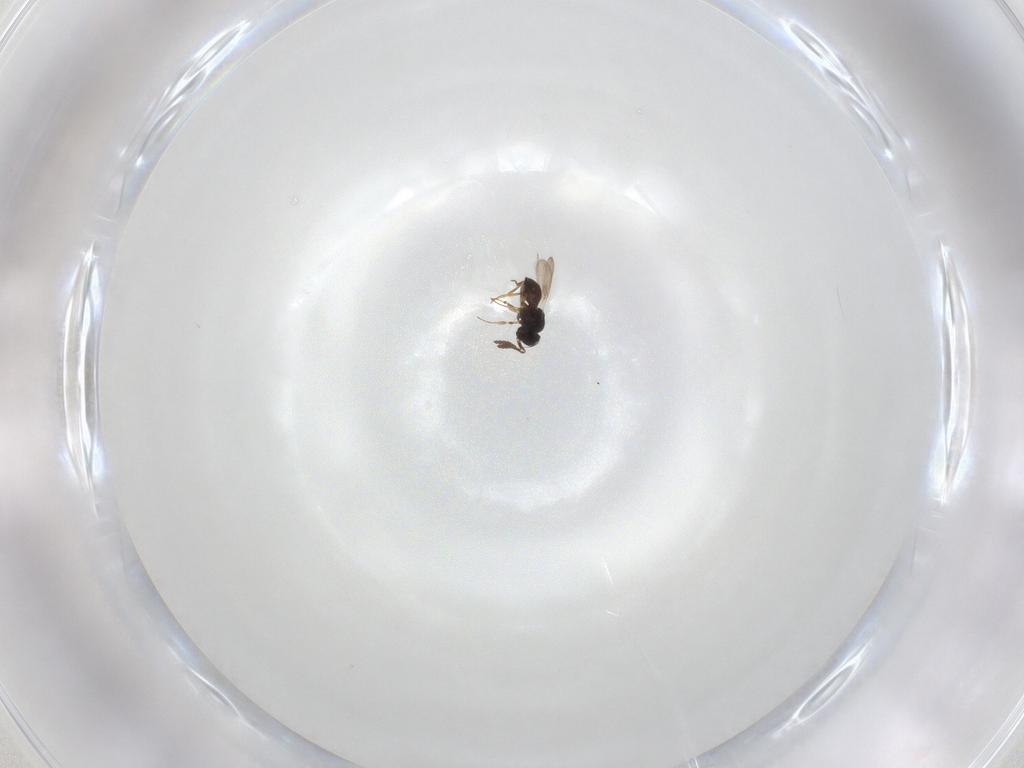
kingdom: Animalia
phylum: Arthropoda
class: Insecta
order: Hymenoptera
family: Scelionidae
